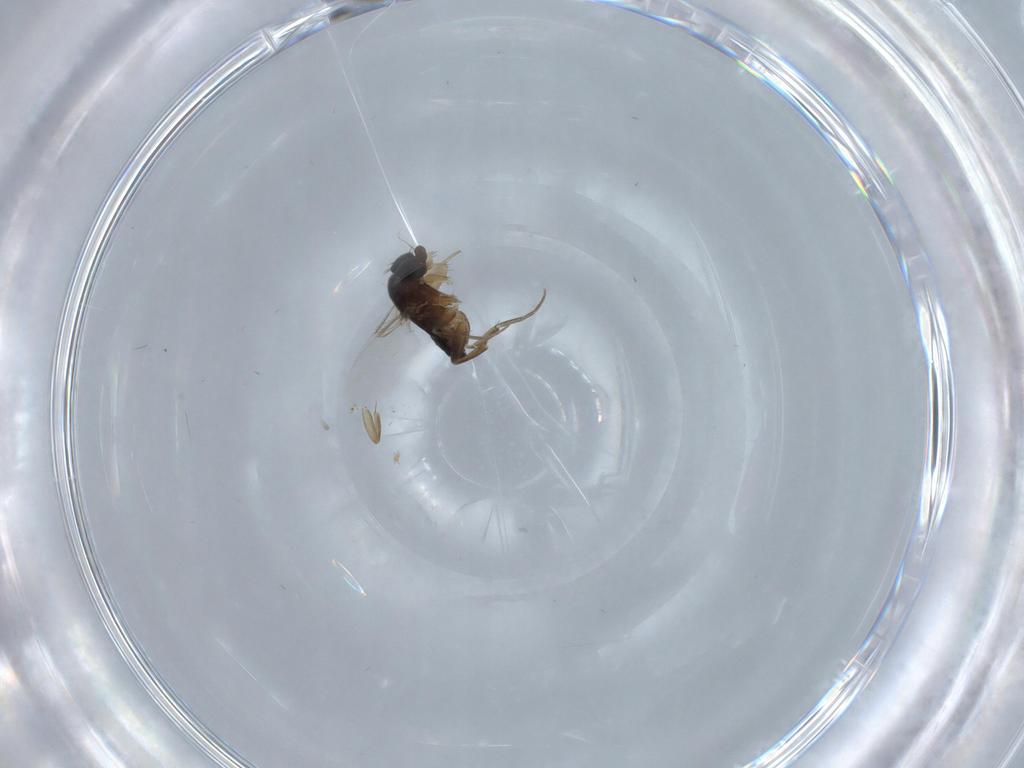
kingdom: Animalia
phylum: Arthropoda
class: Insecta
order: Diptera
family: Phoridae
